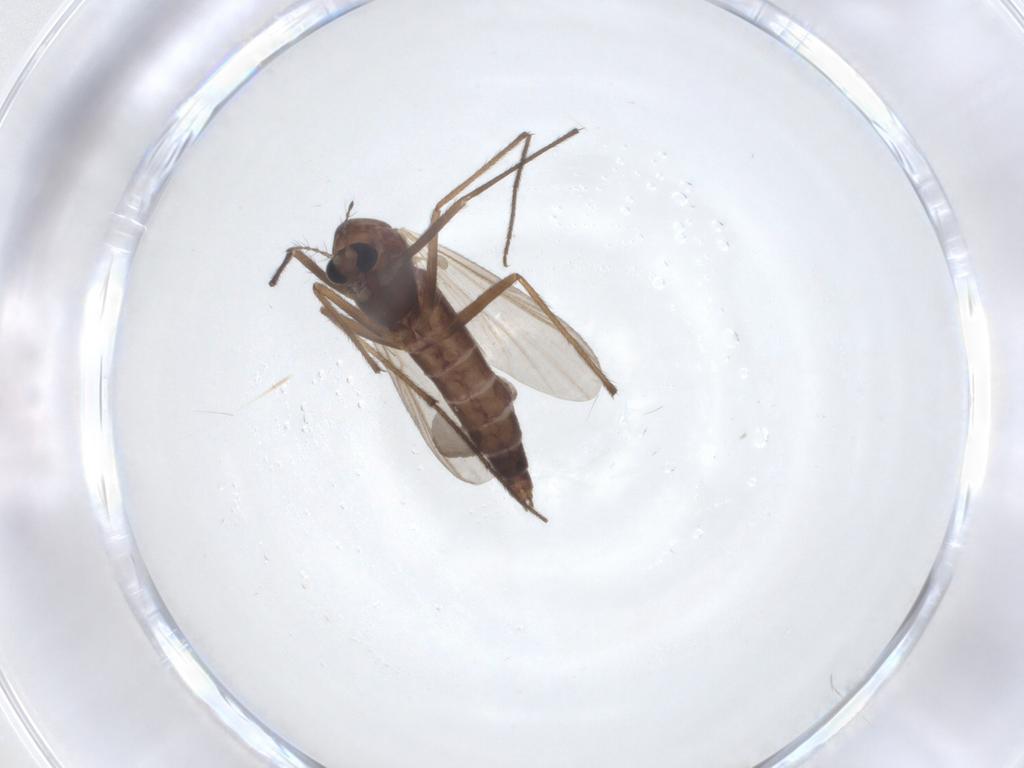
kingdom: Animalia
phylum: Arthropoda
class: Insecta
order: Diptera
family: Chironomidae
